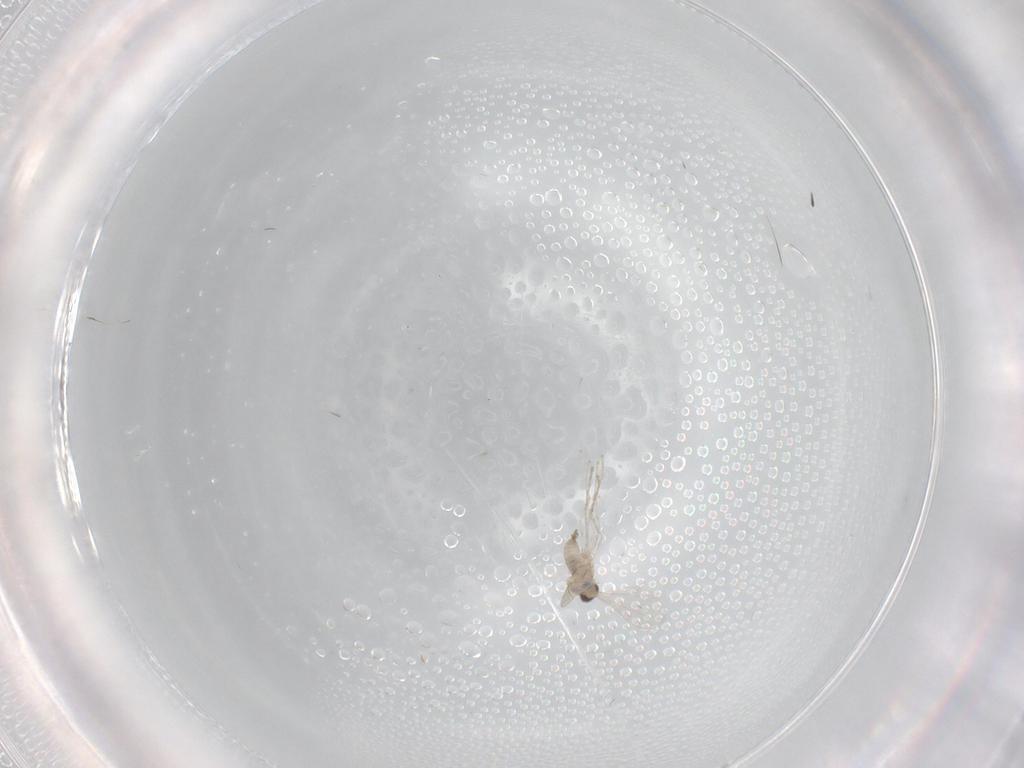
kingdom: Animalia
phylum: Arthropoda
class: Insecta
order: Diptera
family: Cecidomyiidae
